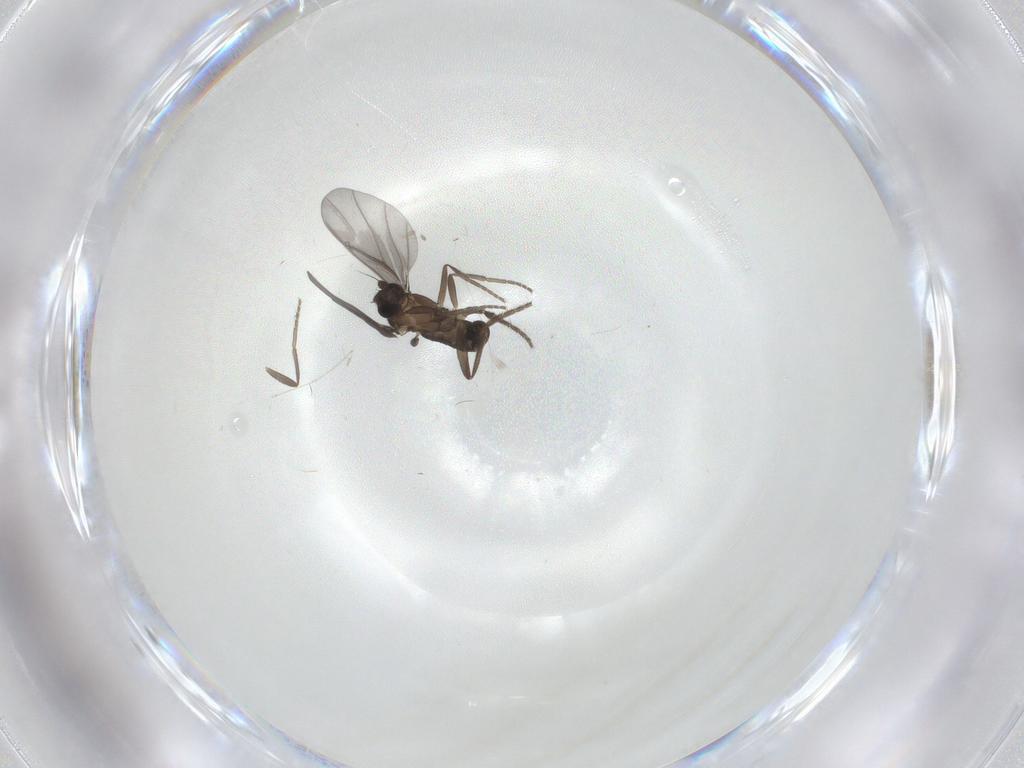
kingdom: Animalia
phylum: Arthropoda
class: Insecta
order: Diptera
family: Phoridae
